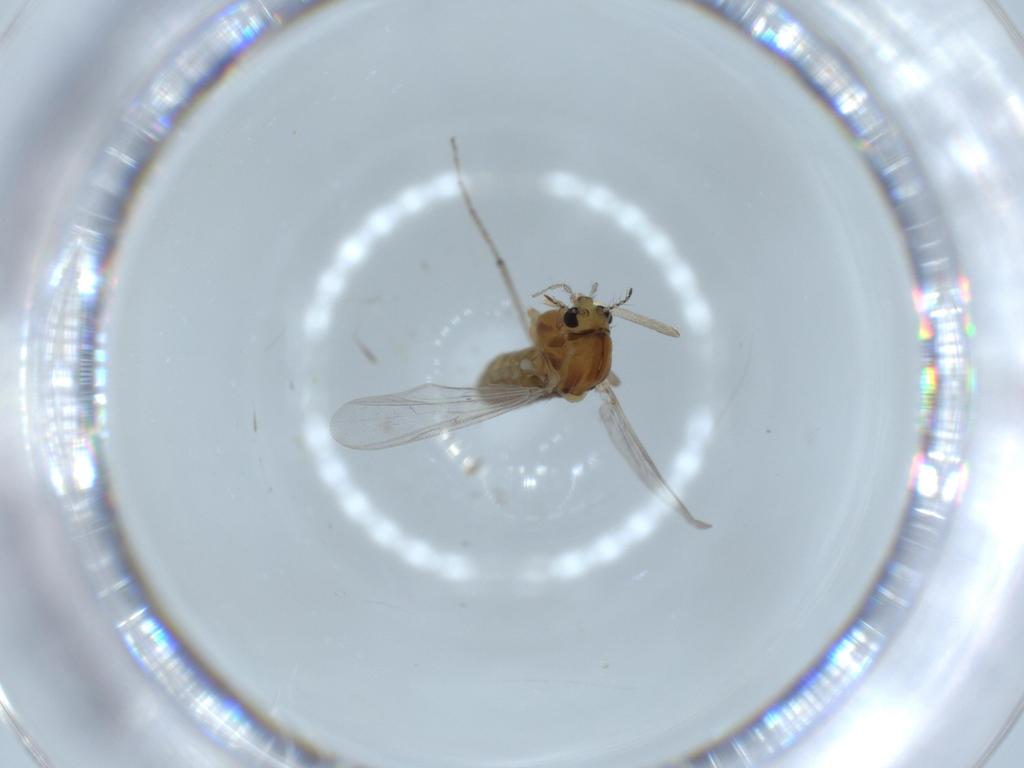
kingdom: Animalia
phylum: Arthropoda
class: Insecta
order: Diptera
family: Chironomidae
